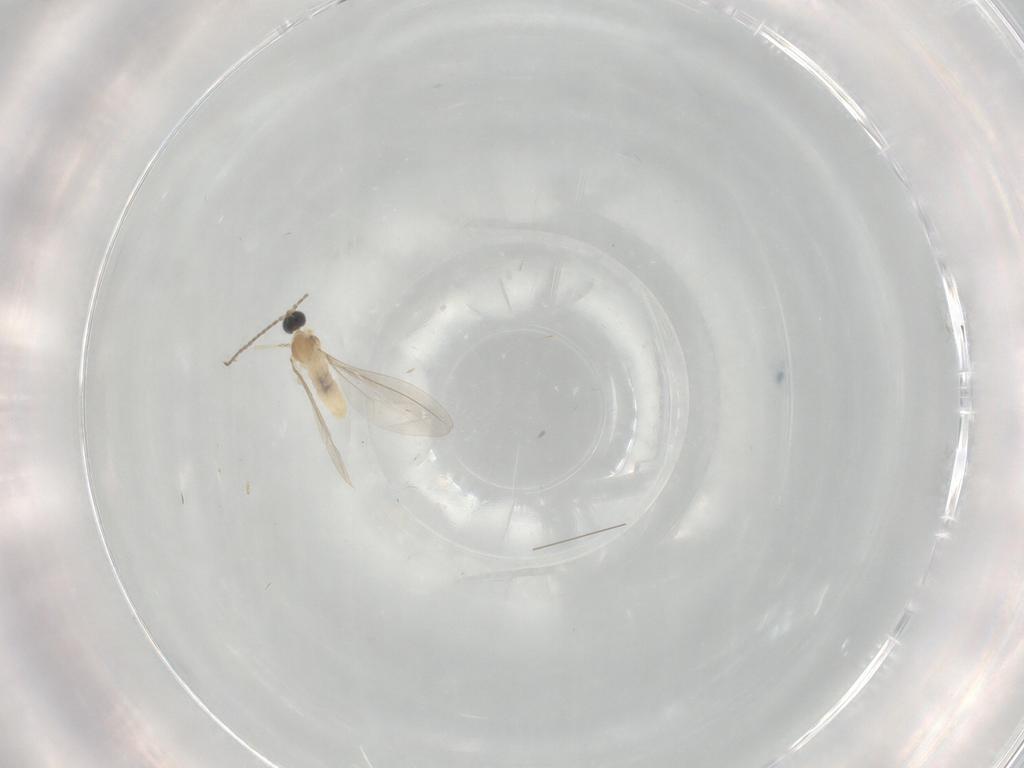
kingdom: Animalia
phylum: Arthropoda
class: Insecta
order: Diptera
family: Cecidomyiidae
